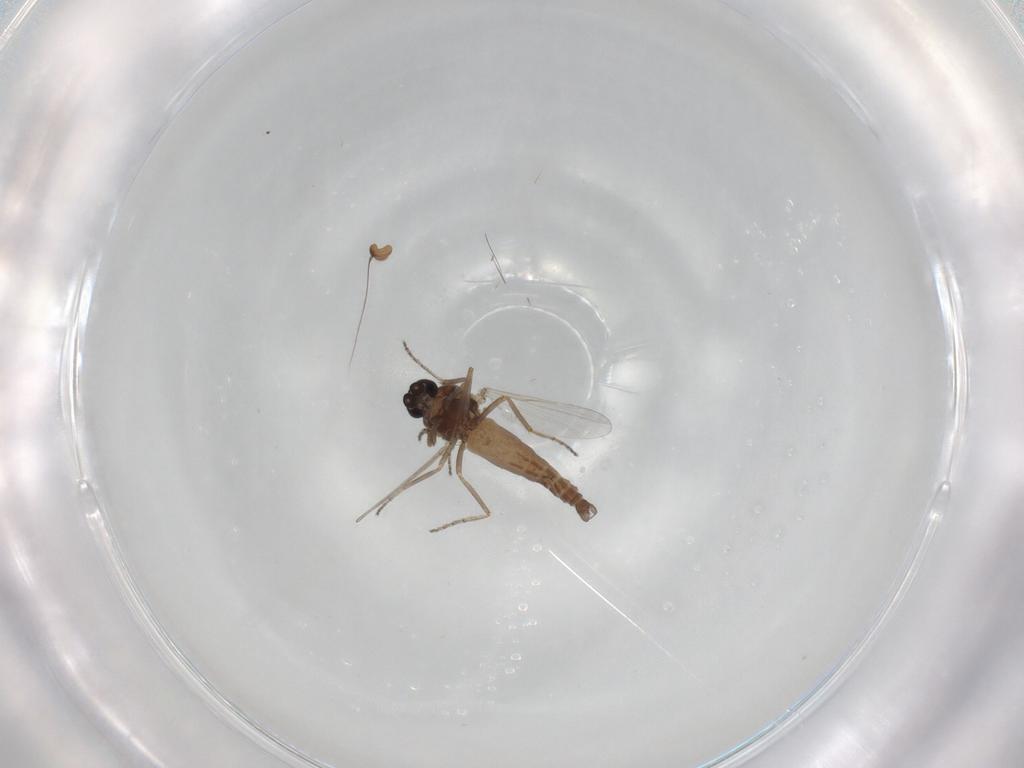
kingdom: Animalia
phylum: Arthropoda
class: Insecta
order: Diptera
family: Ceratopogonidae
